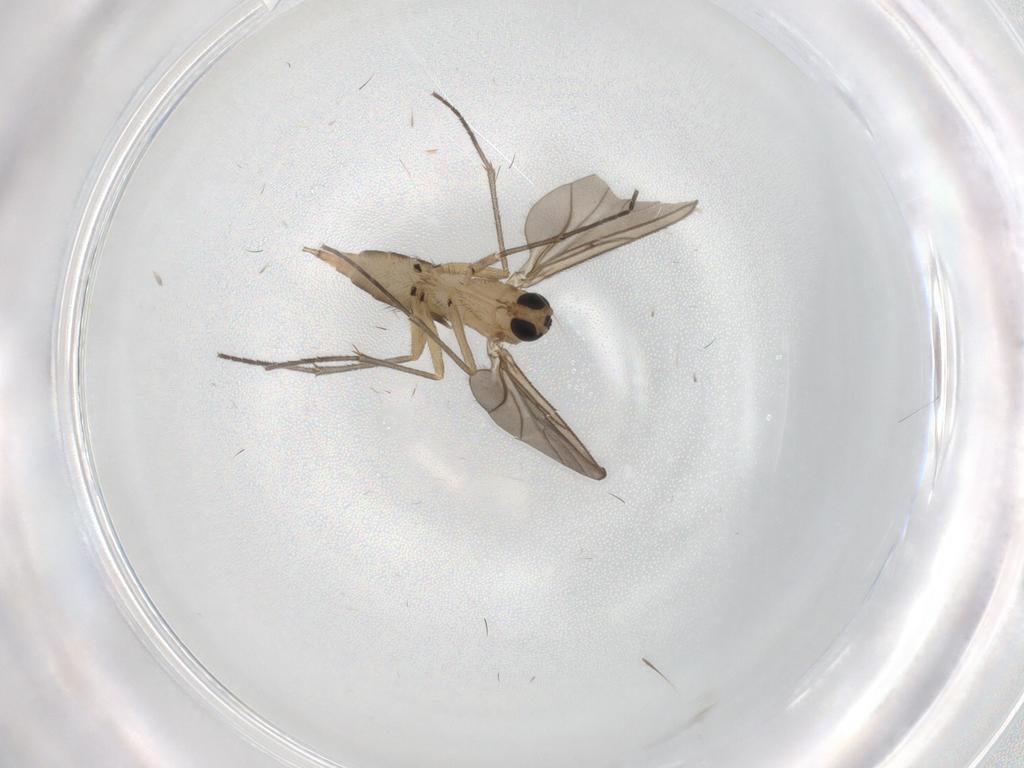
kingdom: Animalia
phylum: Arthropoda
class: Insecta
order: Diptera
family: Sciaridae
